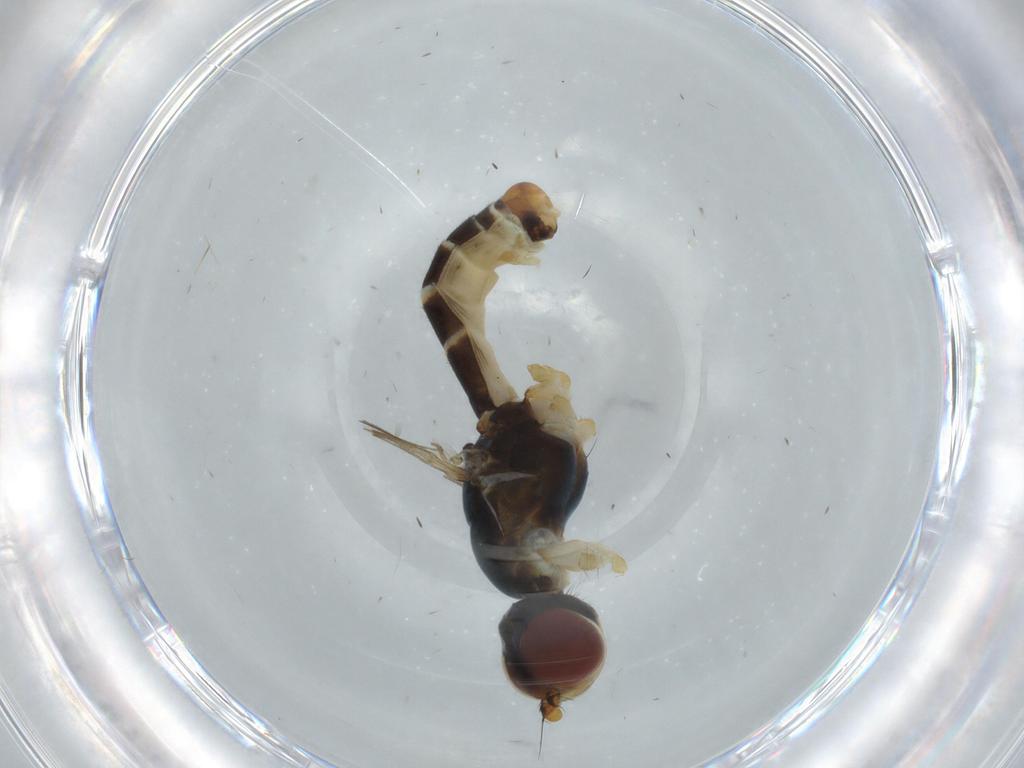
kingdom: Animalia
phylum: Arthropoda
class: Insecta
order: Diptera
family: Micropezidae
